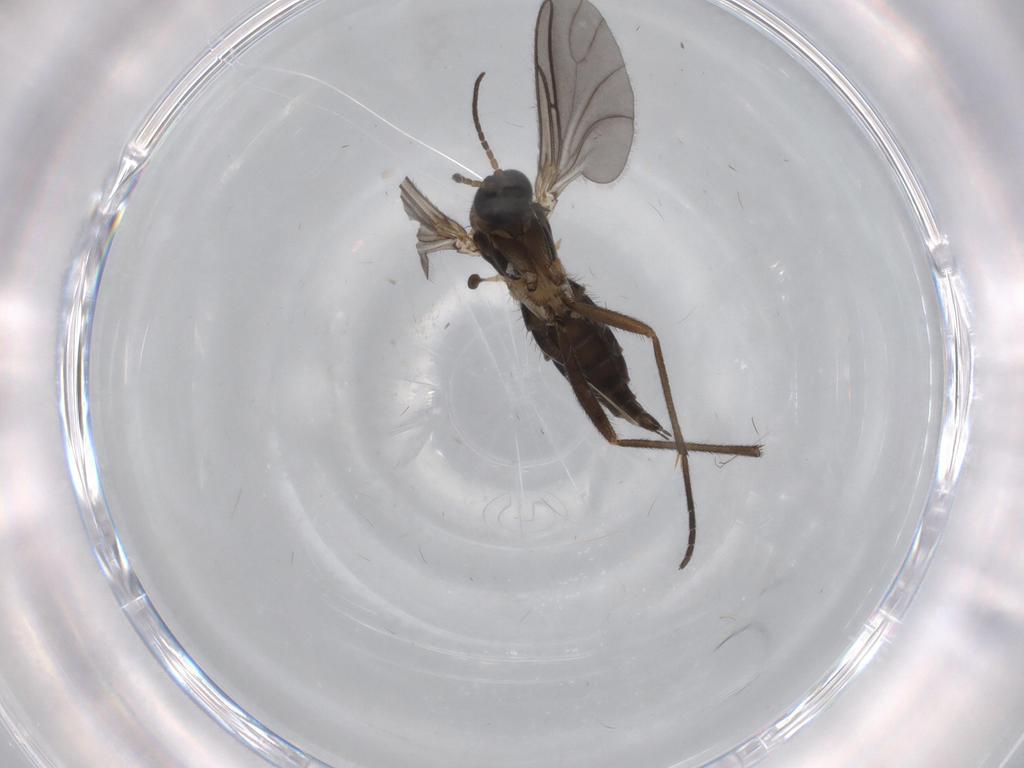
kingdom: Animalia
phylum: Arthropoda
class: Insecta
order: Diptera
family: Sciaridae
